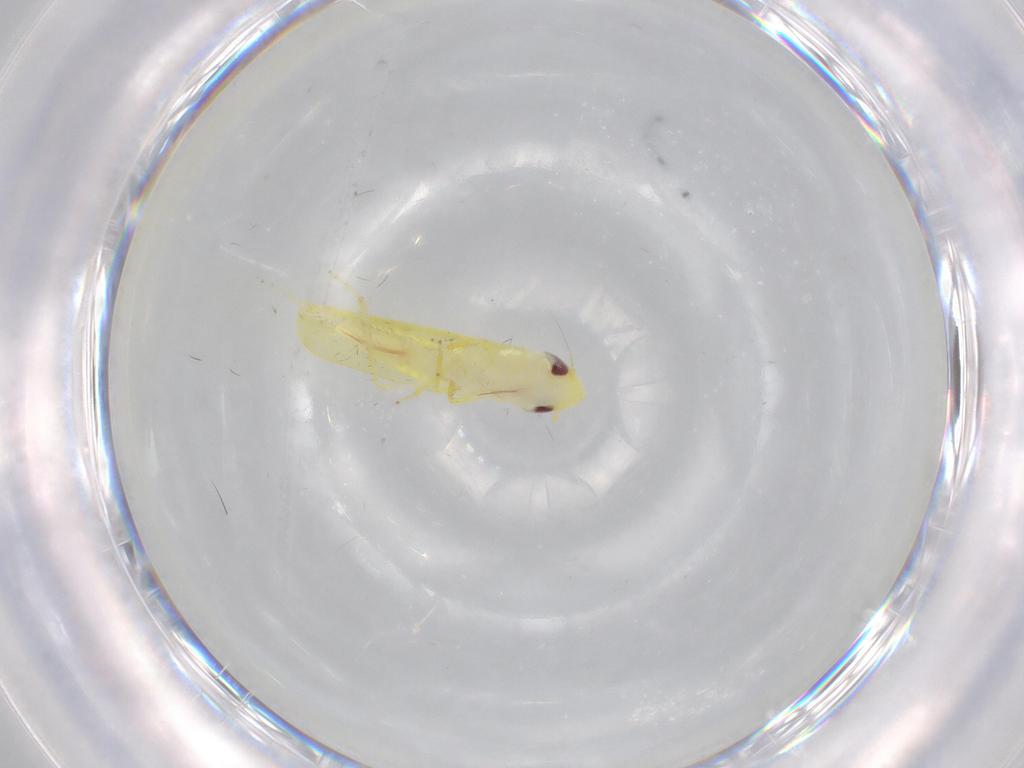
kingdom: Animalia
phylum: Arthropoda
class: Insecta
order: Hemiptera
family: Cicadellidae
